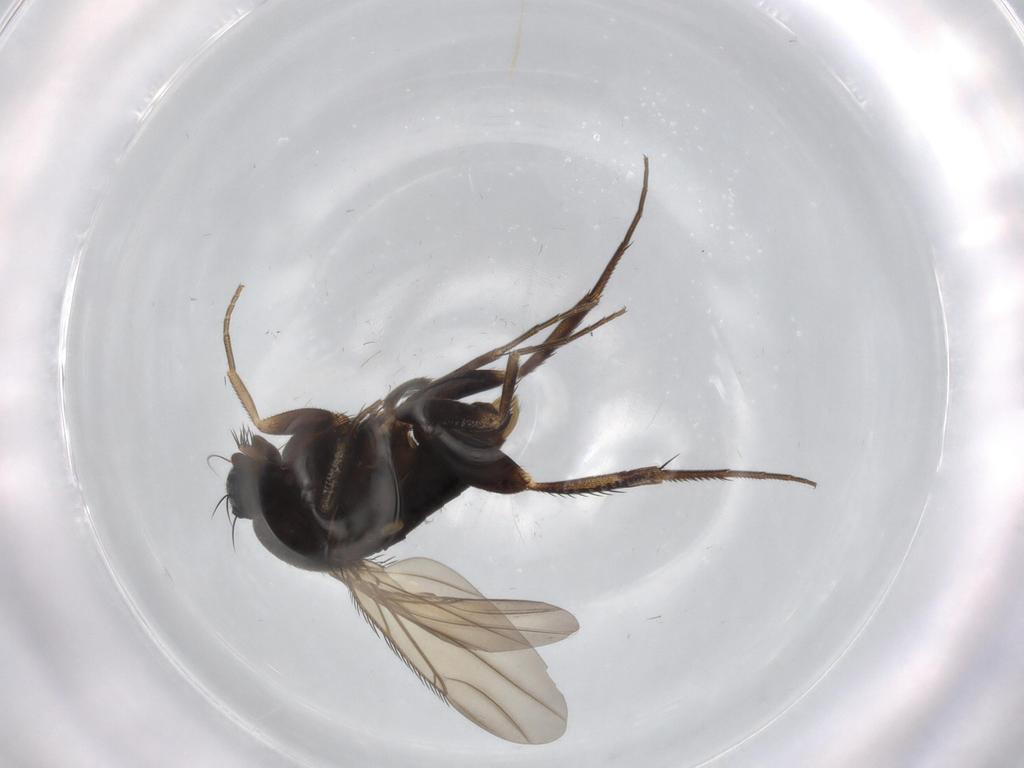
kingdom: Animalia
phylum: Arthropoda
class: Insecta
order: Diptera
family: Phoridae
